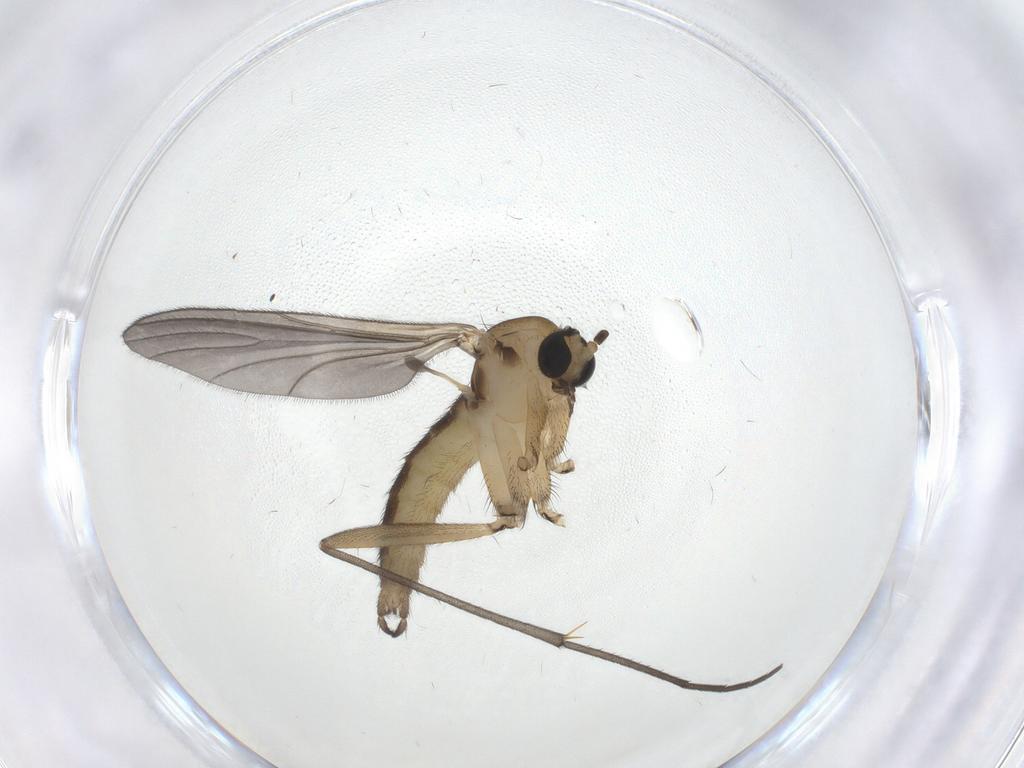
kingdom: Animalia
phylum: Arthropoda
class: Insecta
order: Diptera
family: Sciaridae
